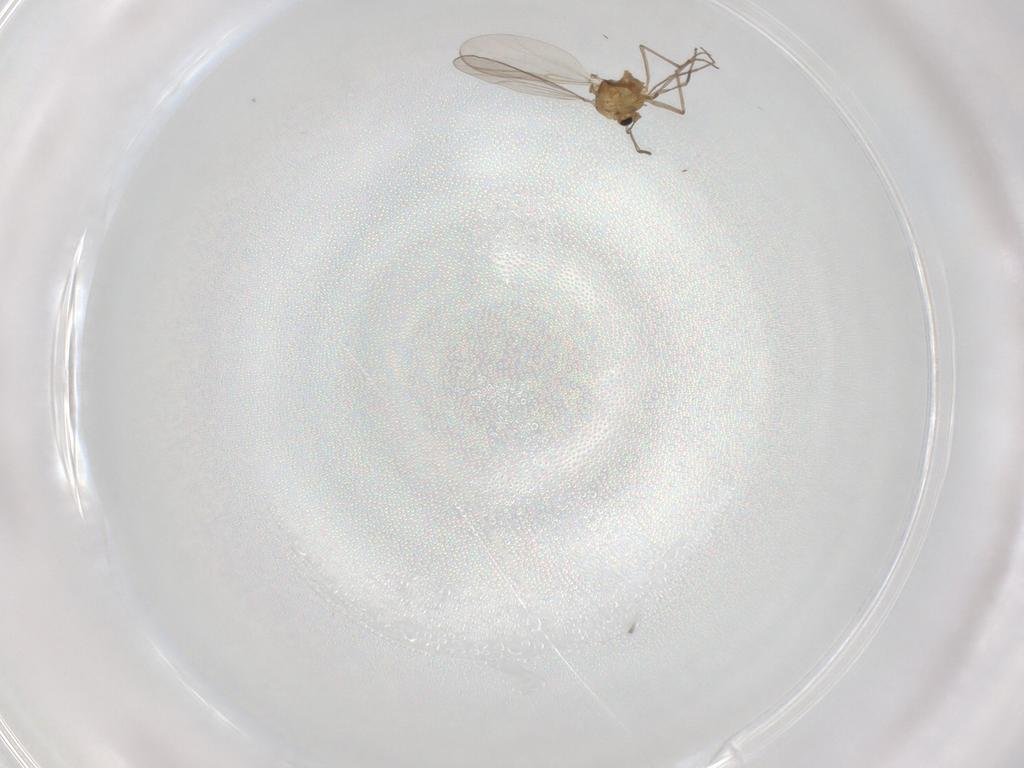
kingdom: Animalia
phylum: Arthropoda
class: Insecta
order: Diptera
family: Chironomidae
